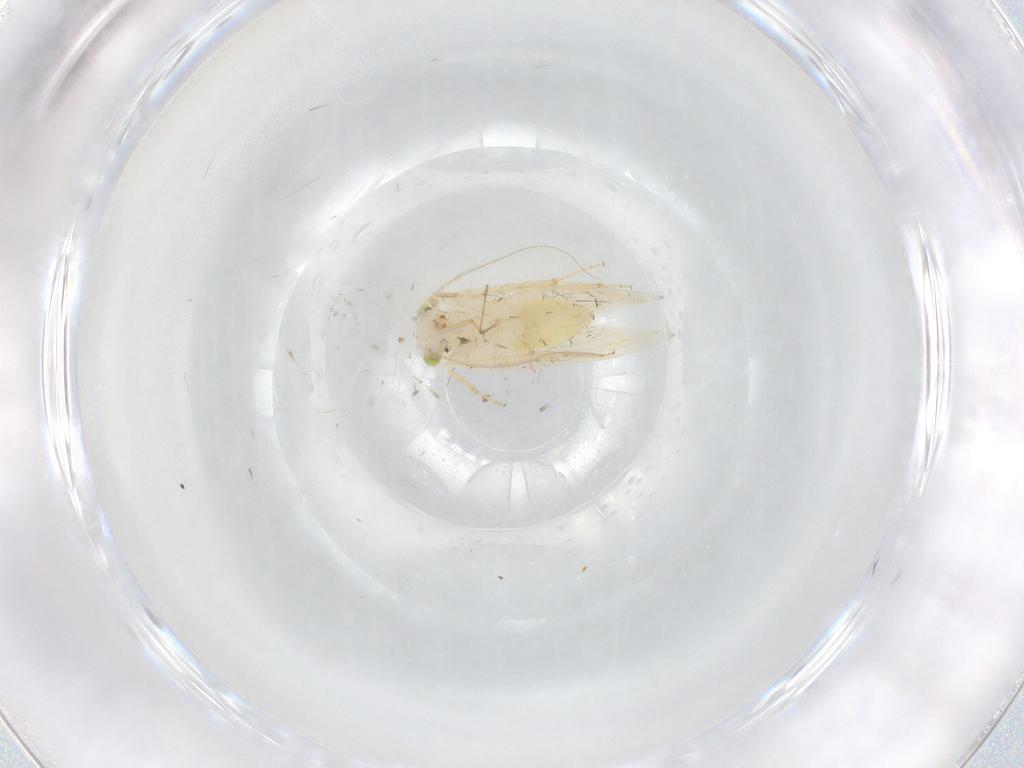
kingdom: Animalia
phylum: Arthropoda
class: Insecta
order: Psocodea
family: Lepidopsocidae
